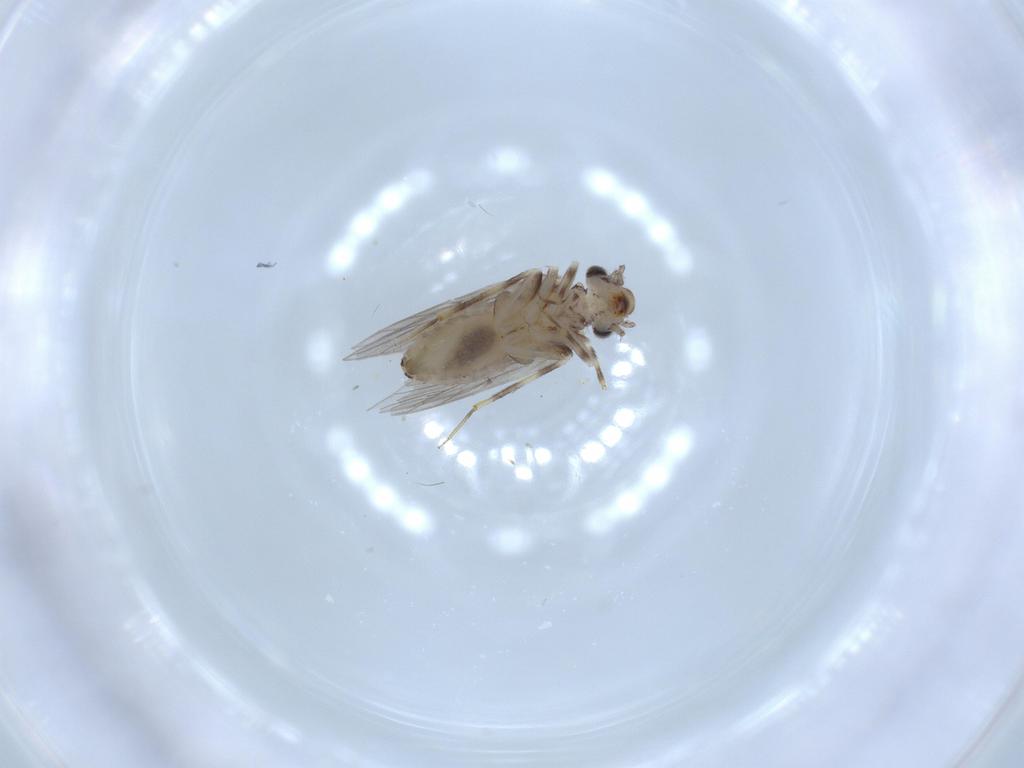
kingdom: Animalia
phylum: Arthropoda
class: Insecta
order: Psocodea
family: Lepidopsocidae
